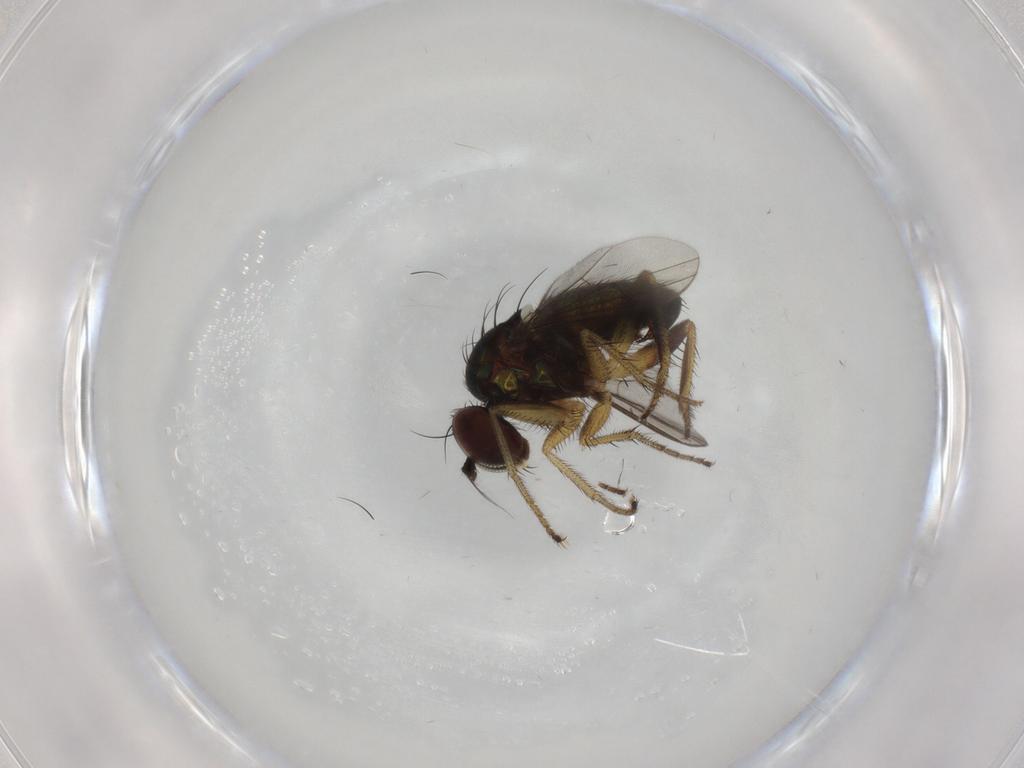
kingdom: Animalia
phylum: Arthropoda
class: Insecta
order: Diptera
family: Dolichopodidae
